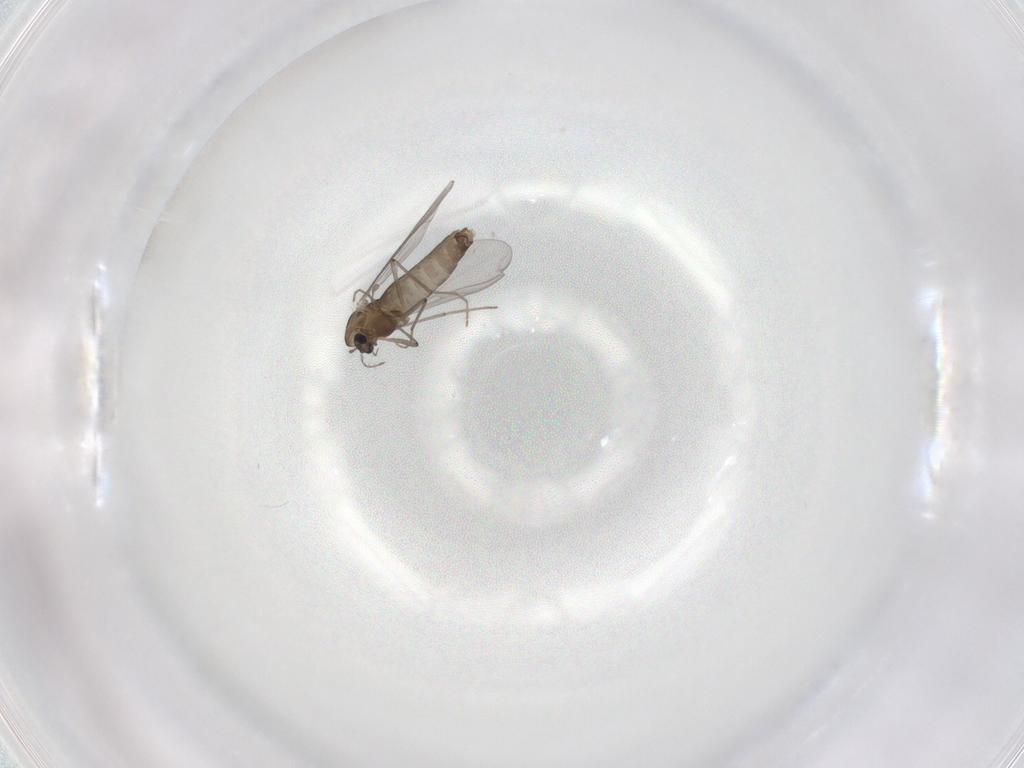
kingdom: Animalia
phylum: Arthropoda
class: Insecta
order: Diptera
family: Chironomidae
